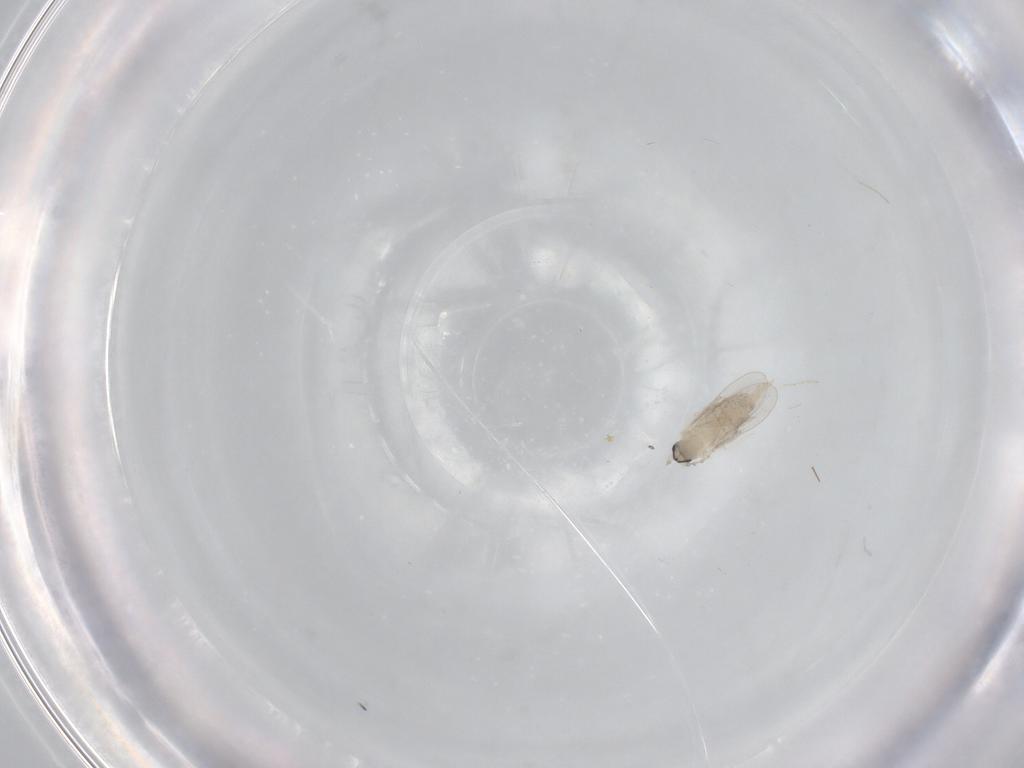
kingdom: Animalia
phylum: Arthropoda
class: Insecta
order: Diptera
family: Cecidomyiidae
